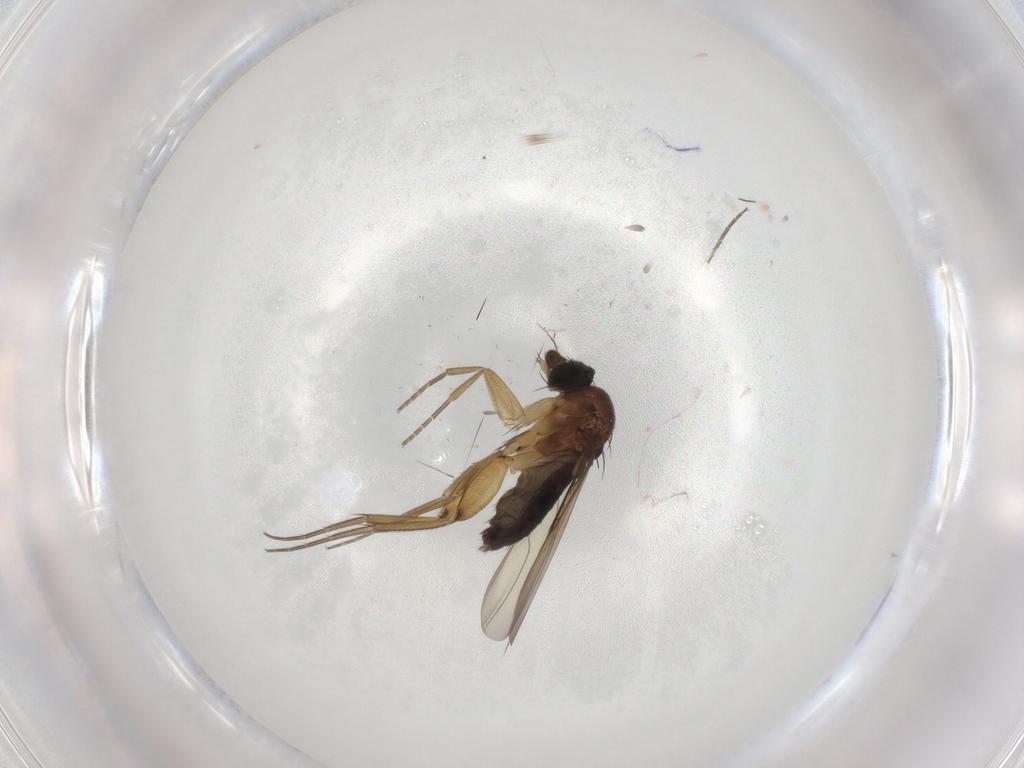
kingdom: Animalia
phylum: Arthropoda
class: Insecta
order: Diptera
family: Phoridae
